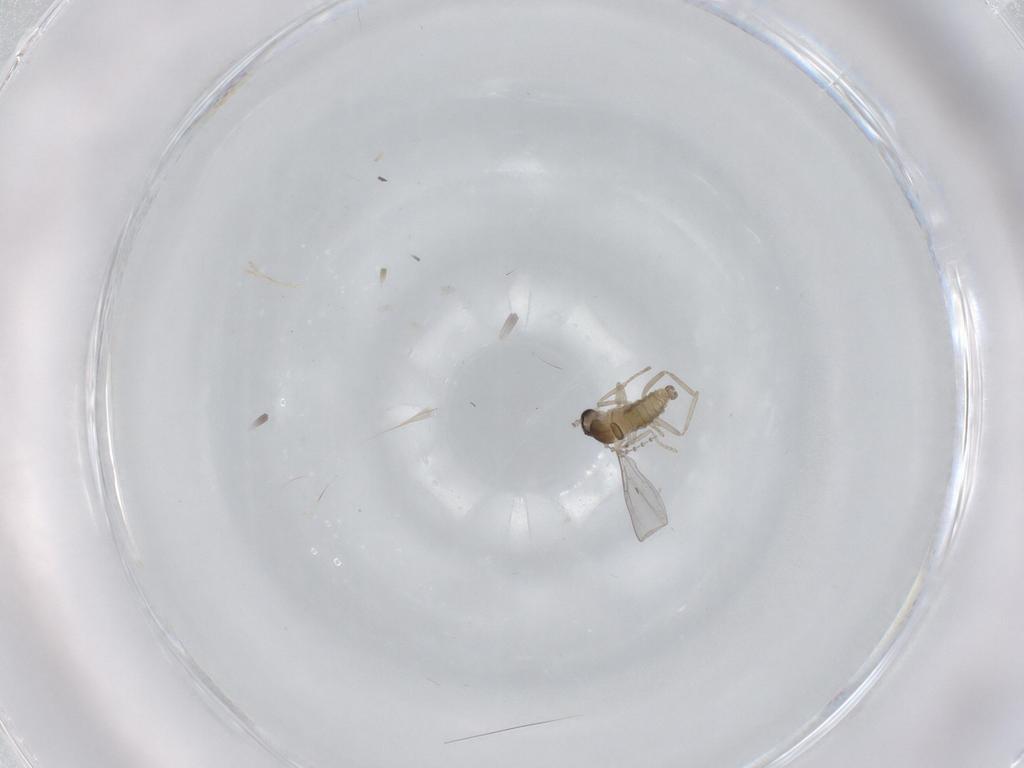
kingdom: Animalia
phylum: Arthropoda
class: Insecta
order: Diptera
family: Cecidomyiidae
